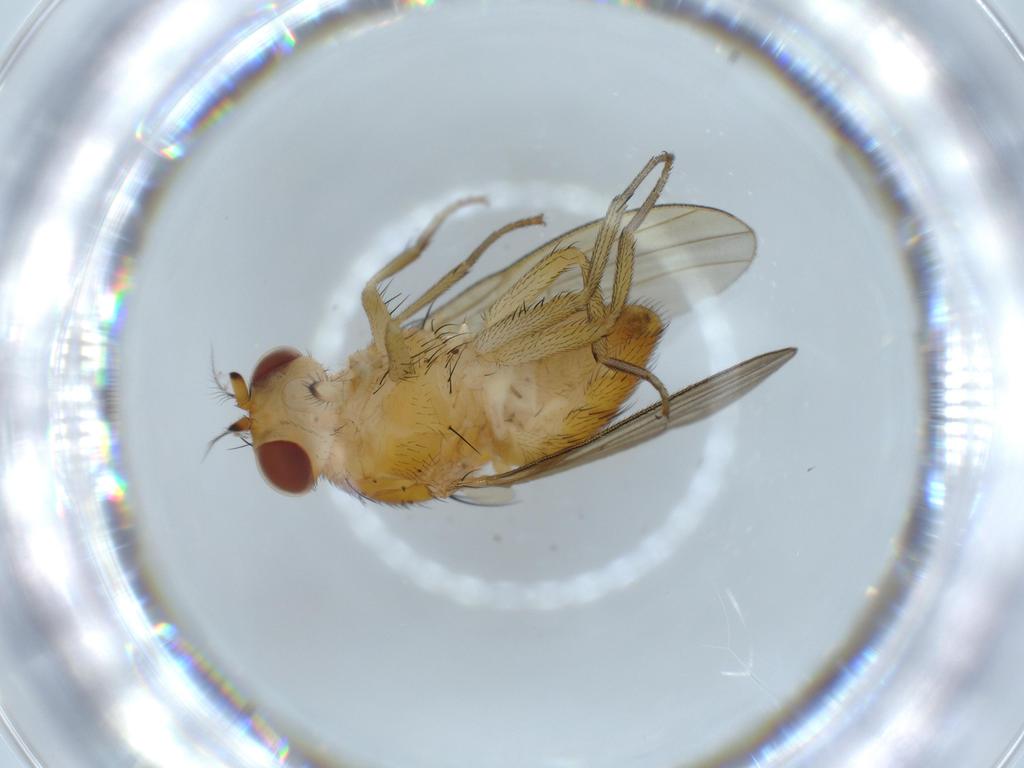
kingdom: Animalia
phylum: Arthropoda
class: Insecta
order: Diptera
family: Lauxaniidae
